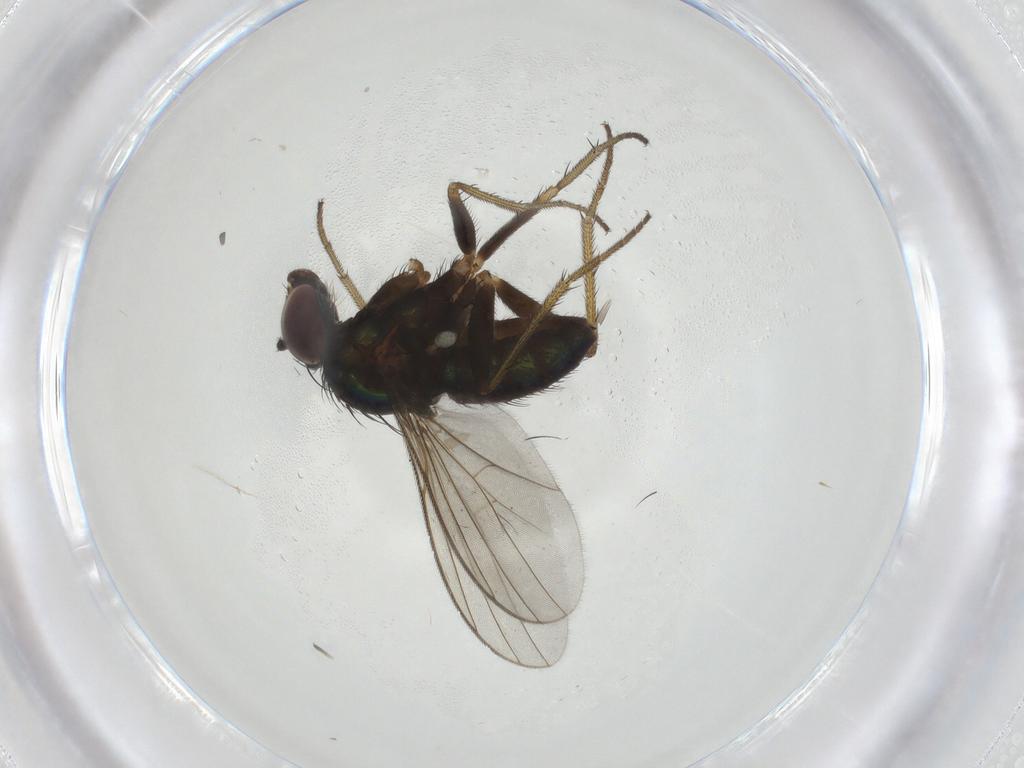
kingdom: Animalia
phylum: Arthropoda
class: Insecta
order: Diptera
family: Dolichopodidae
